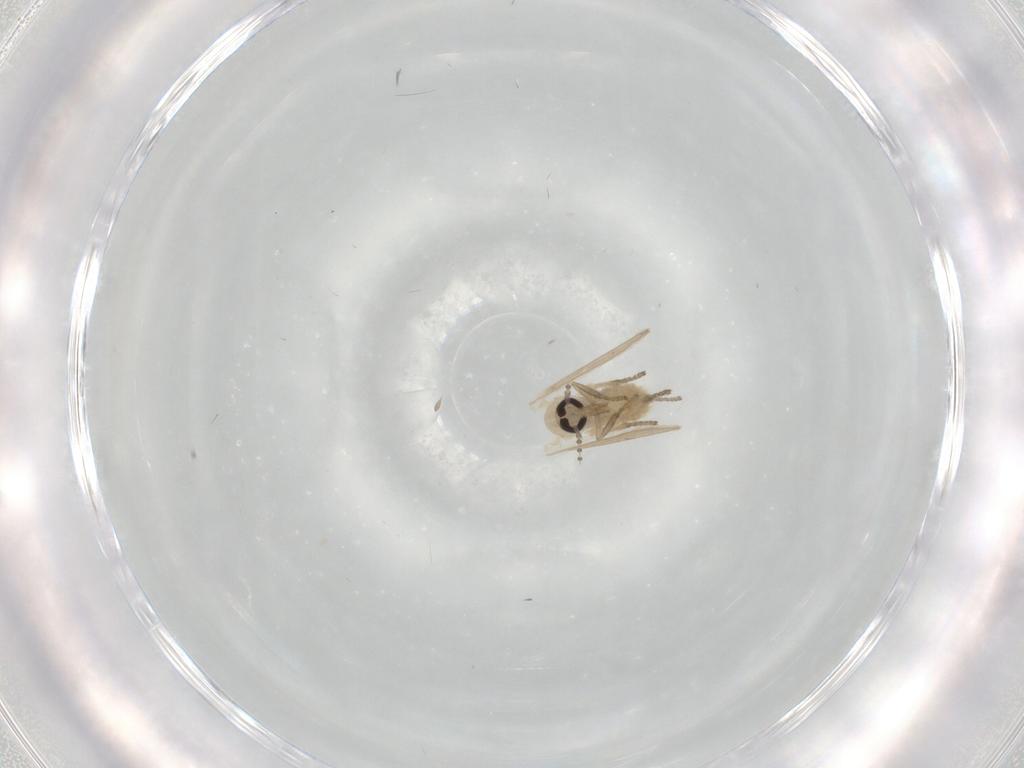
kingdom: Animalia
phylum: Arthropoda
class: Insecta
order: Diptera
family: Psychodidae
